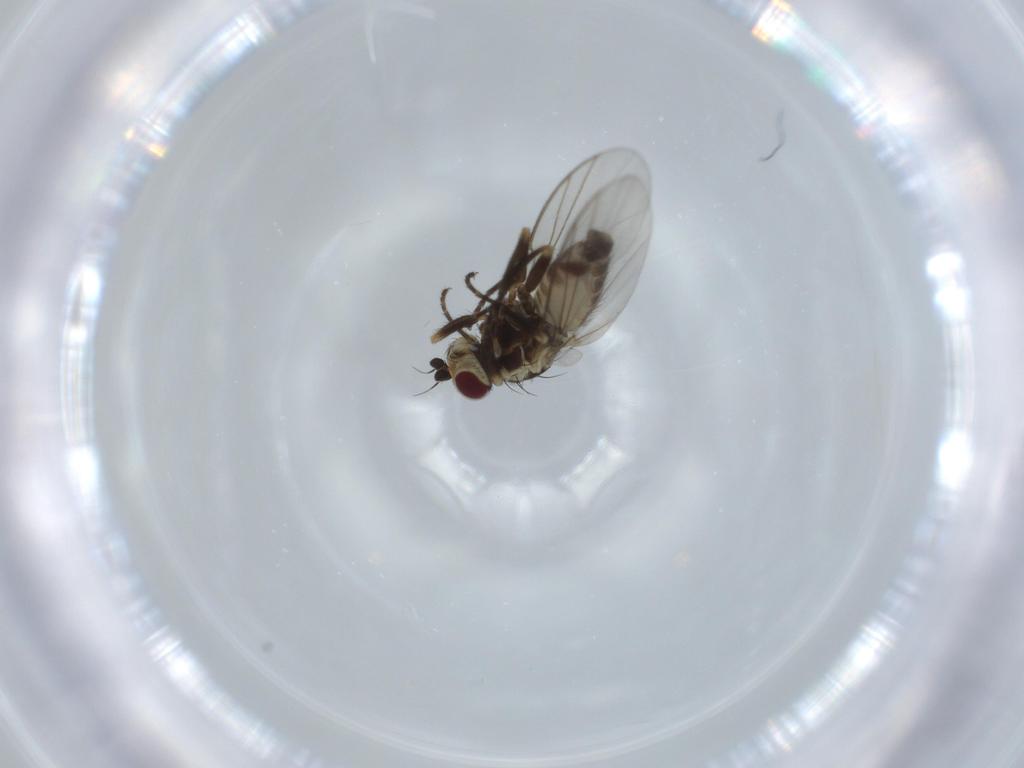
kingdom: Animalia
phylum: Arthropoda
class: Insecta
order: Diptera
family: Agromyzidae
